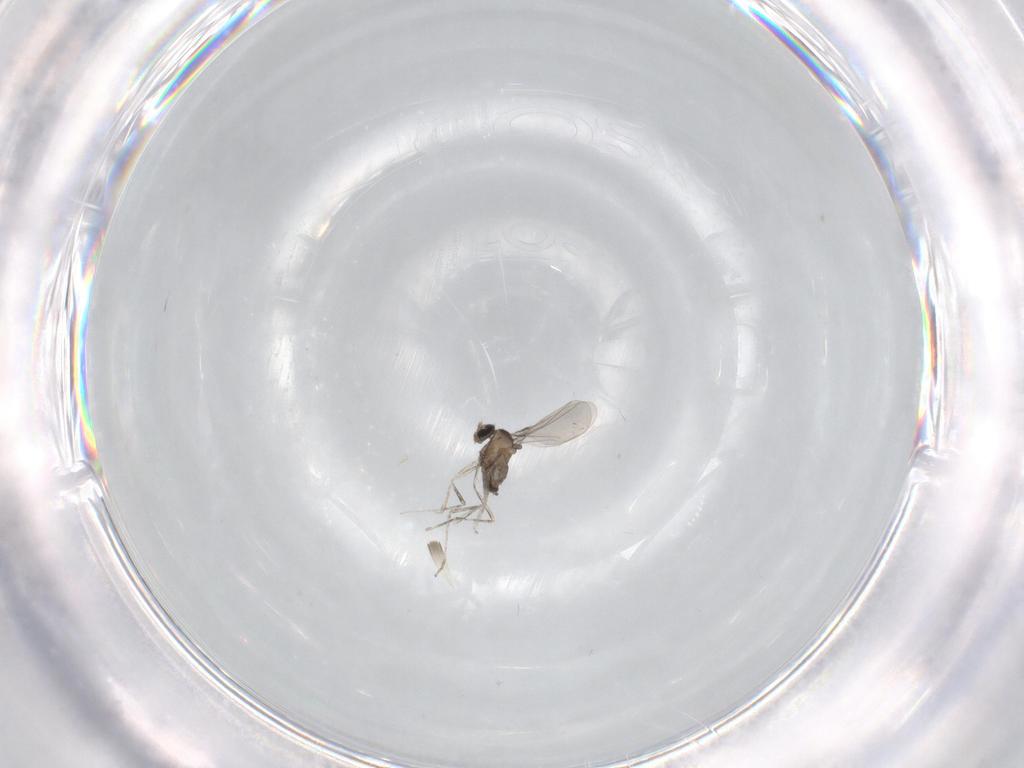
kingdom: Animalia
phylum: Arthropoda
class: Insecta
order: Diptera
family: Cecidomyiidae
